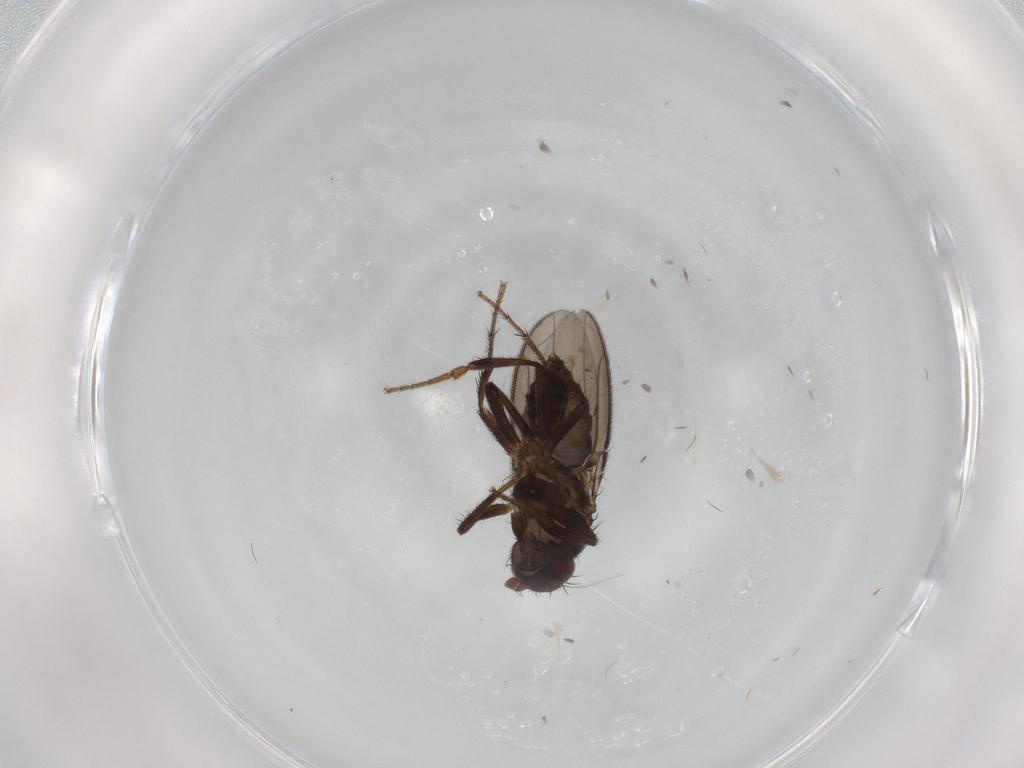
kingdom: Animalia
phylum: Arthropoda
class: Insecta
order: Diptera
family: Sphaeroceridae
